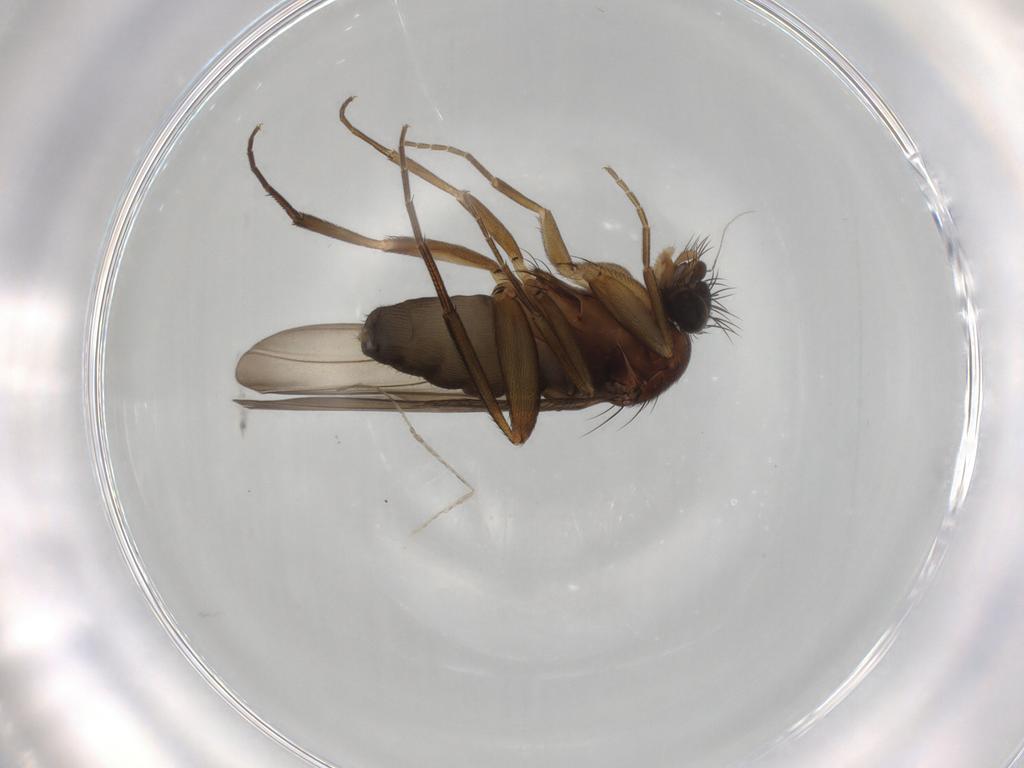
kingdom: Animalia
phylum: Arthropoda
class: Insecta
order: Diptera
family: Phoridae
